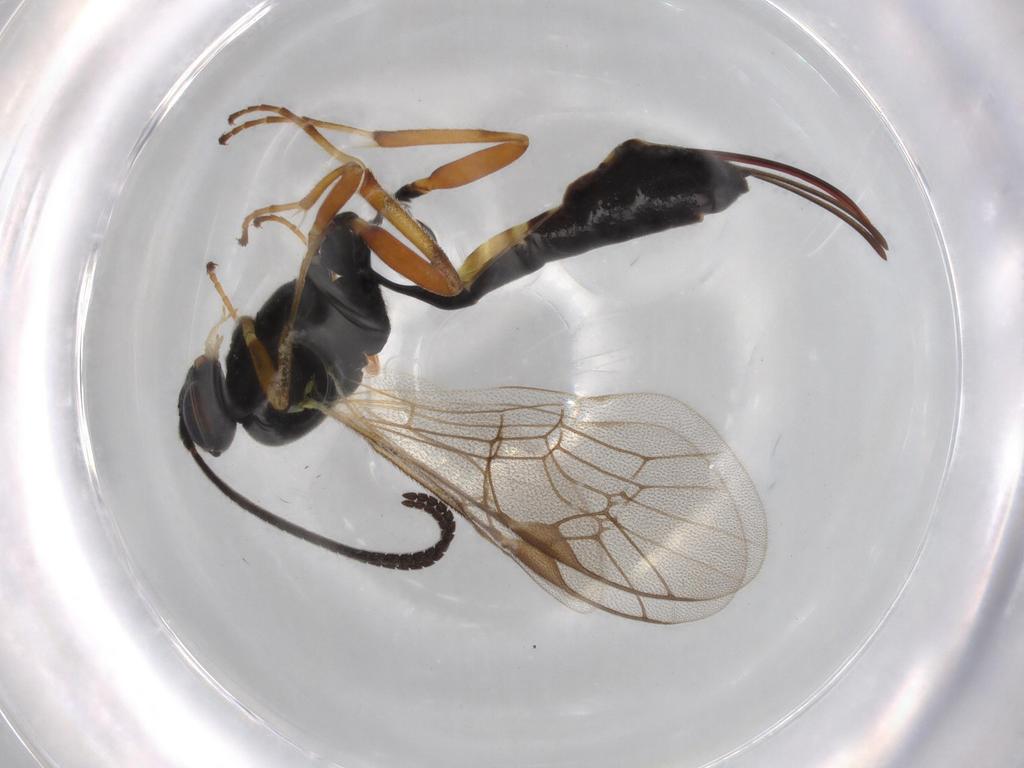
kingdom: Animalia
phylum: Arthropoda
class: Insecta
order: Hymenoptera
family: Ichneumonidae
